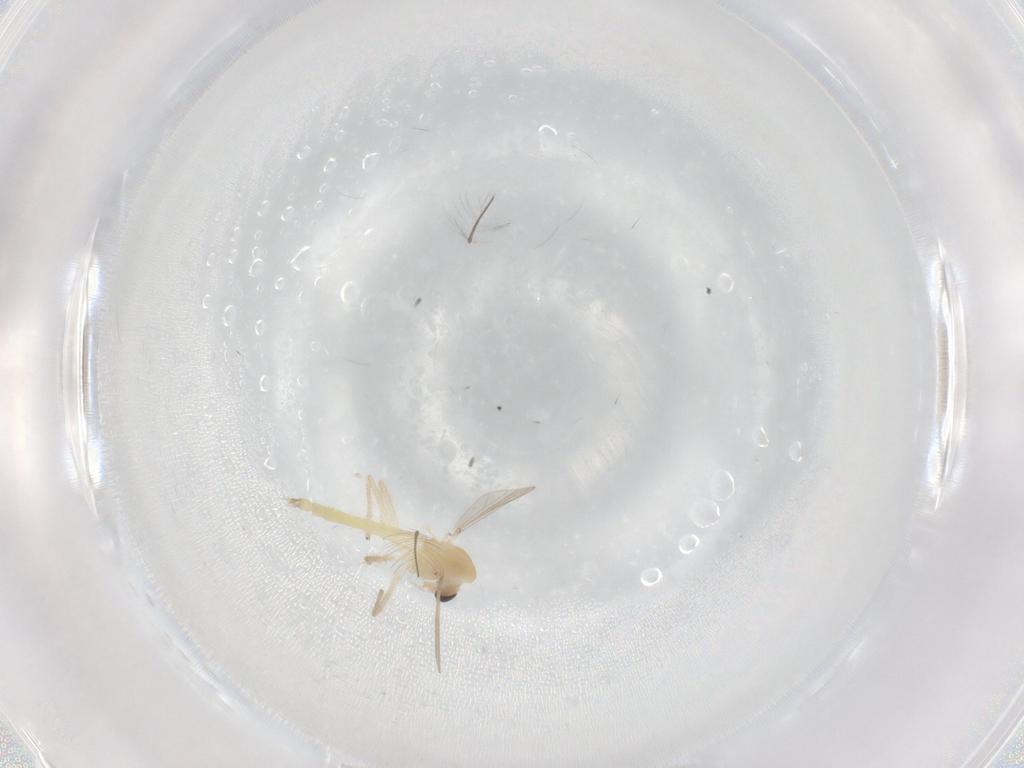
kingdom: Animalia
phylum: Arthropoda
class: Insecta
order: Diptera
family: Chironomidae
